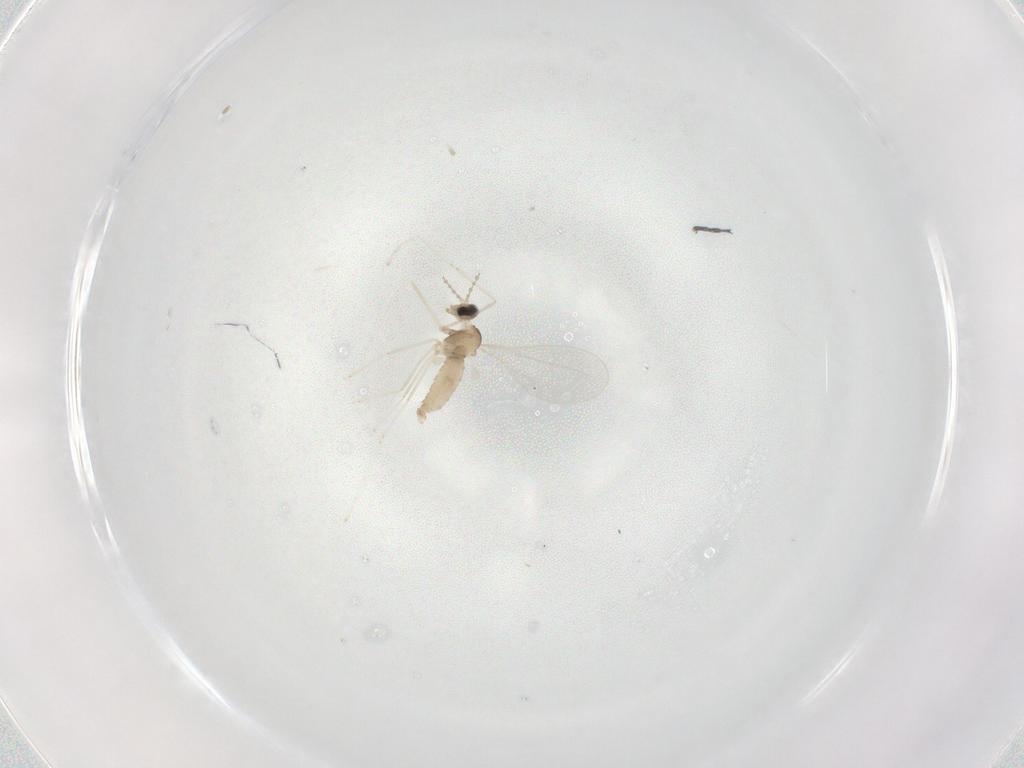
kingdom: Animalia
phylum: Arthropoda
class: Insecta
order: Diptera
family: Cecidomyiidae
